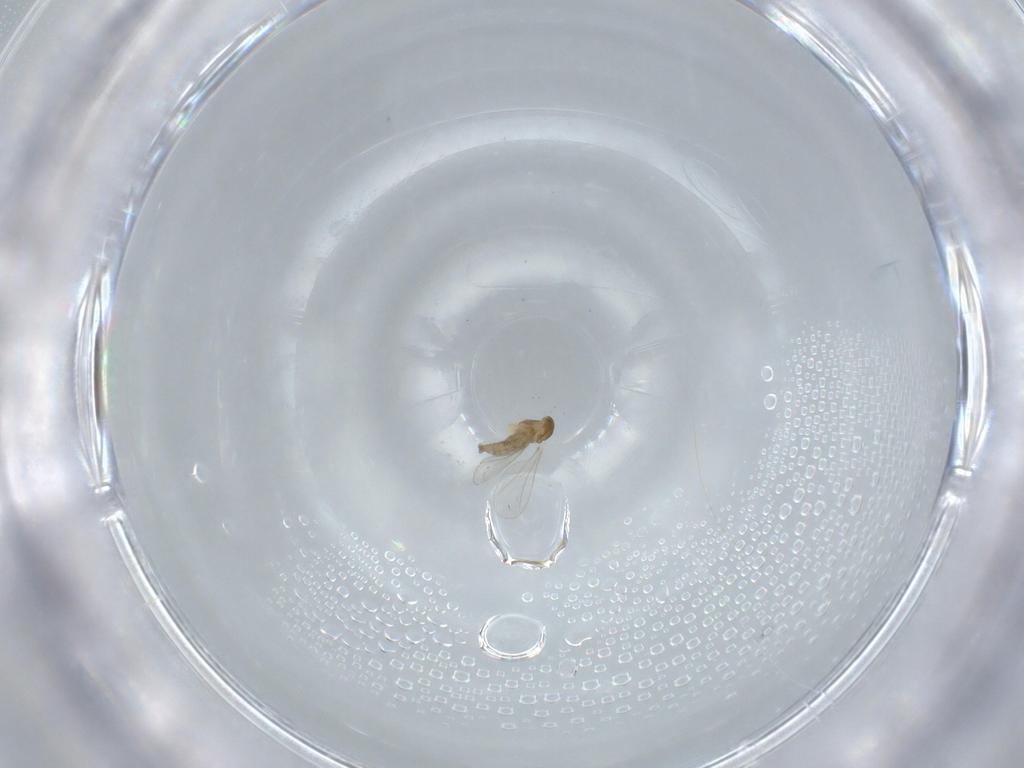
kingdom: Animalia
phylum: Arthropoda
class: Insecta
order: Diptera
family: Cecidomyiidae
